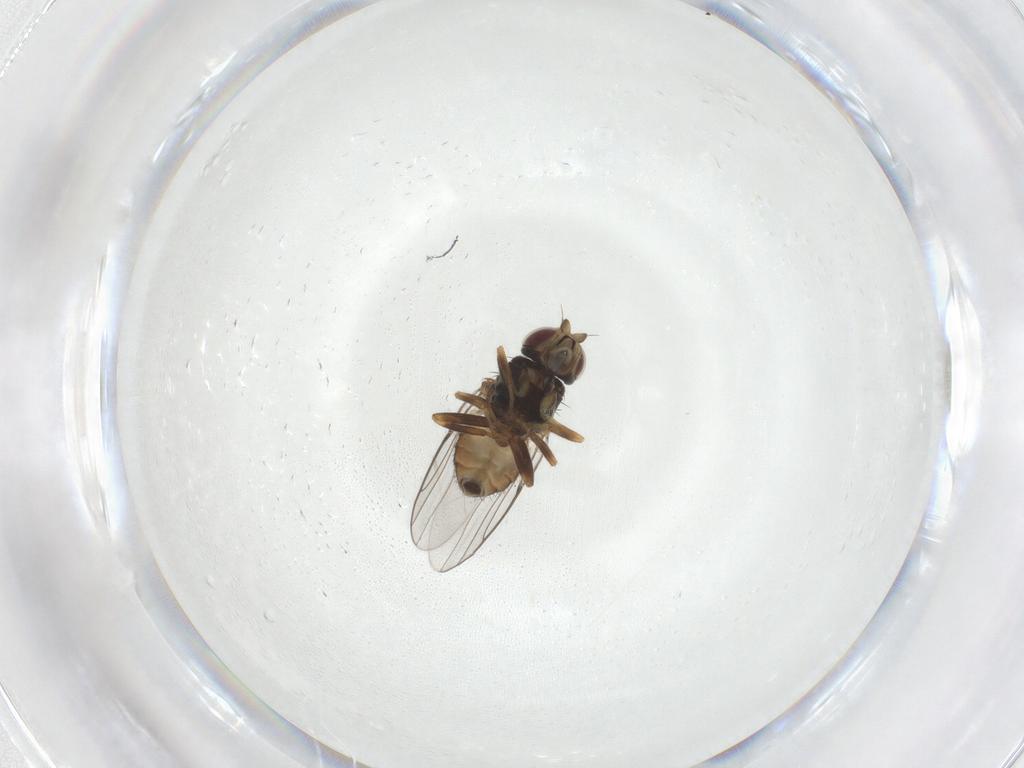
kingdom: Animalia
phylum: Arthropoda
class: Insecta
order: Diptera
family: Chloropidae
